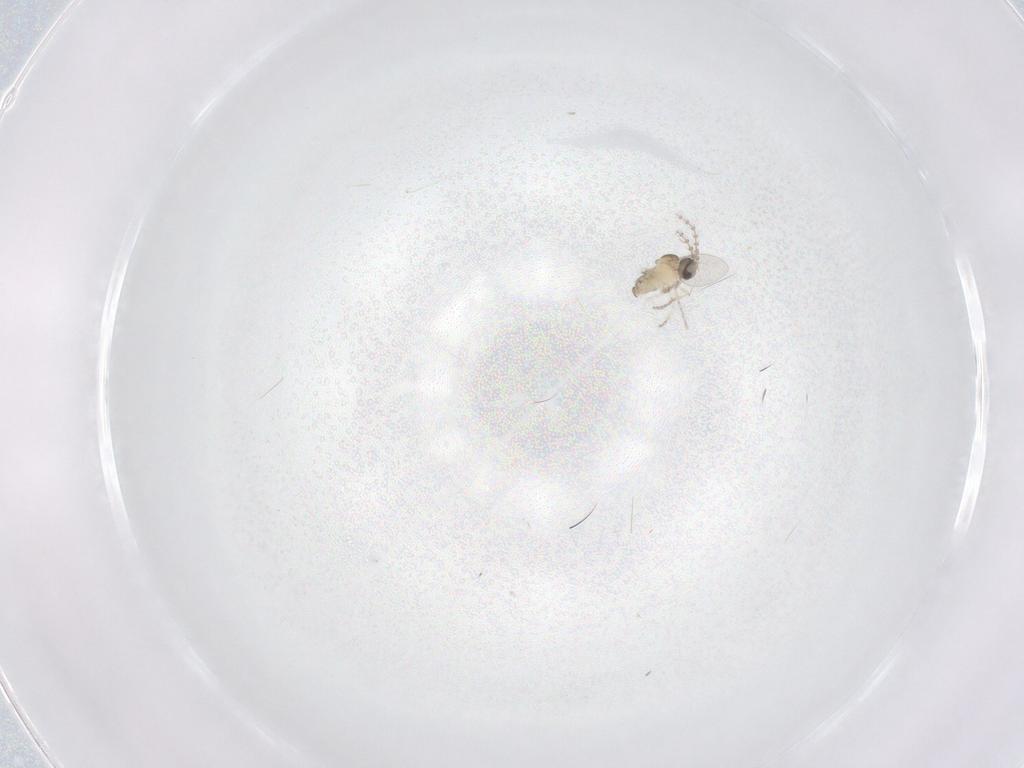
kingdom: Animalia
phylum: Arthropoda
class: Insecta
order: Diptera
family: Cecidomyiidae
